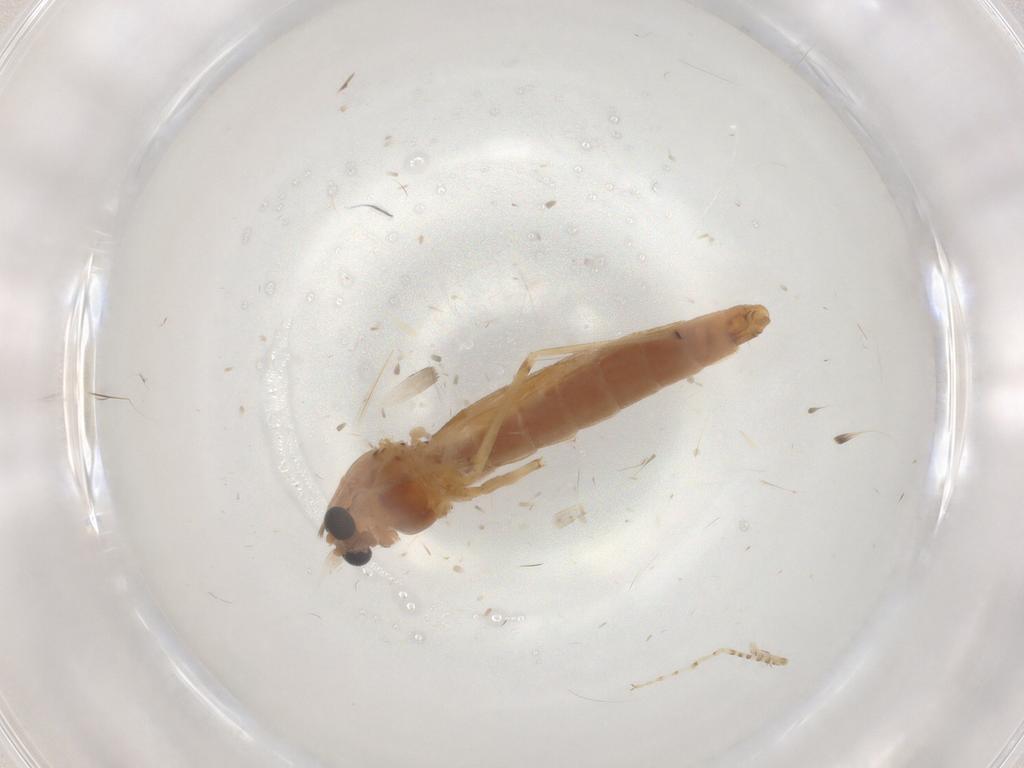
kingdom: Animalia
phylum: Arthropoda
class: Insecta
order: Diptera
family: Chironomidae
